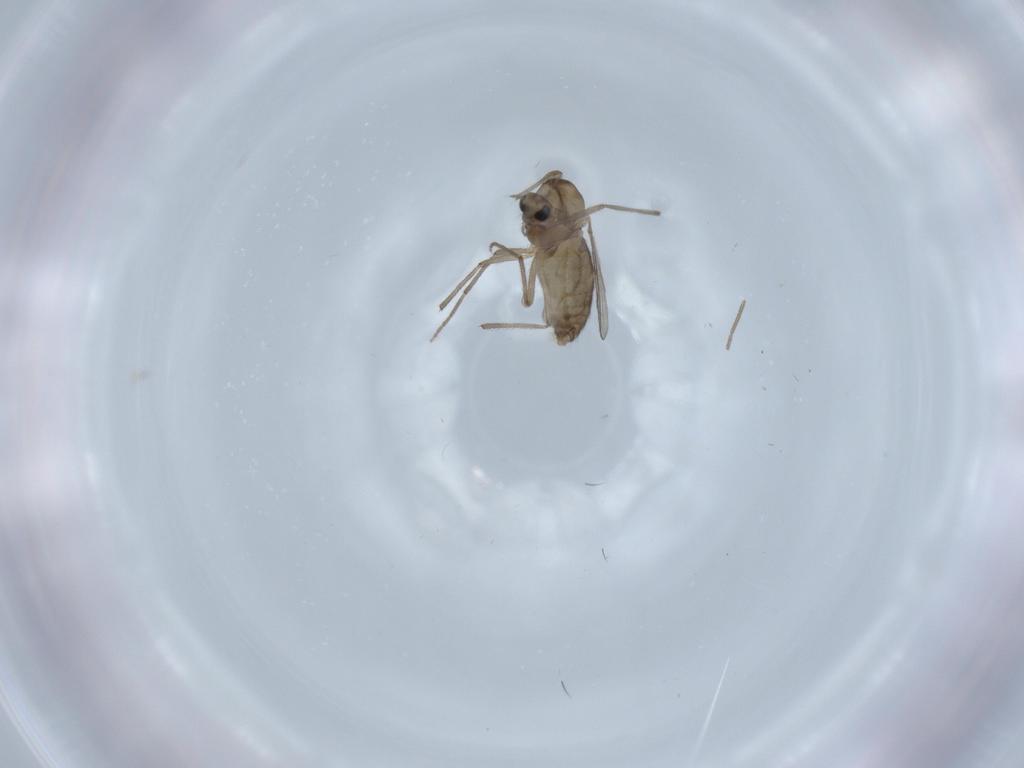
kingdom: Animalia
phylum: Arthropoda
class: Insecta
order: Diptera
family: Chironomidae
